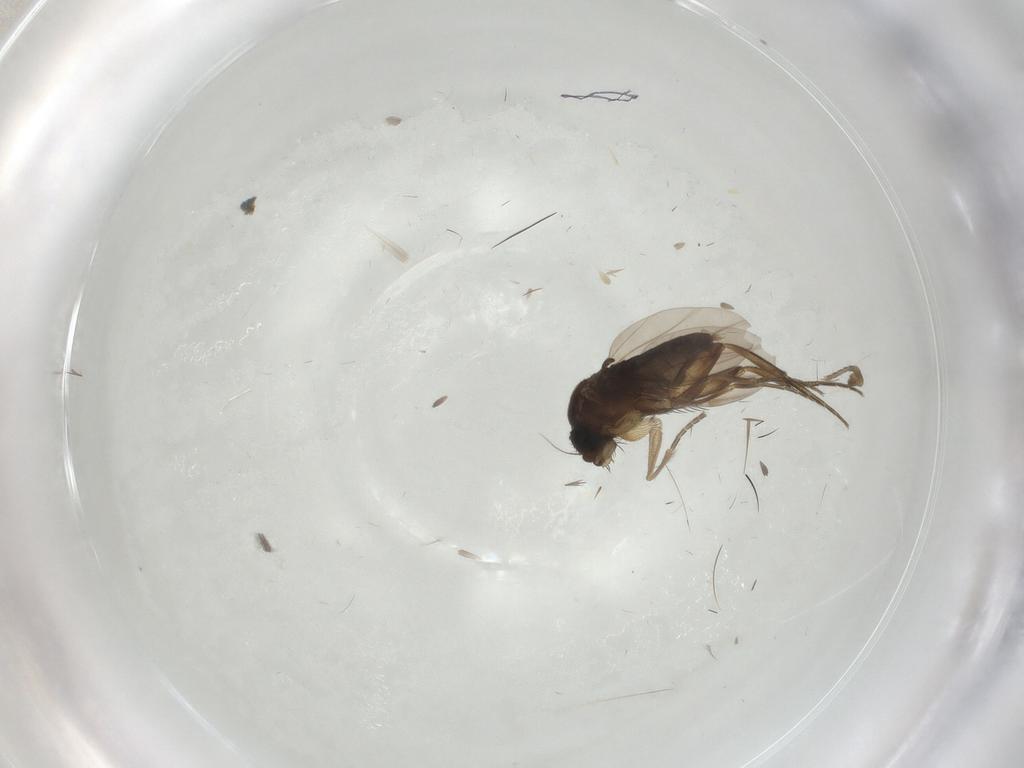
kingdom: Animalia
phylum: Arthropoda
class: Insecta
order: Diptera
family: Phoridae
